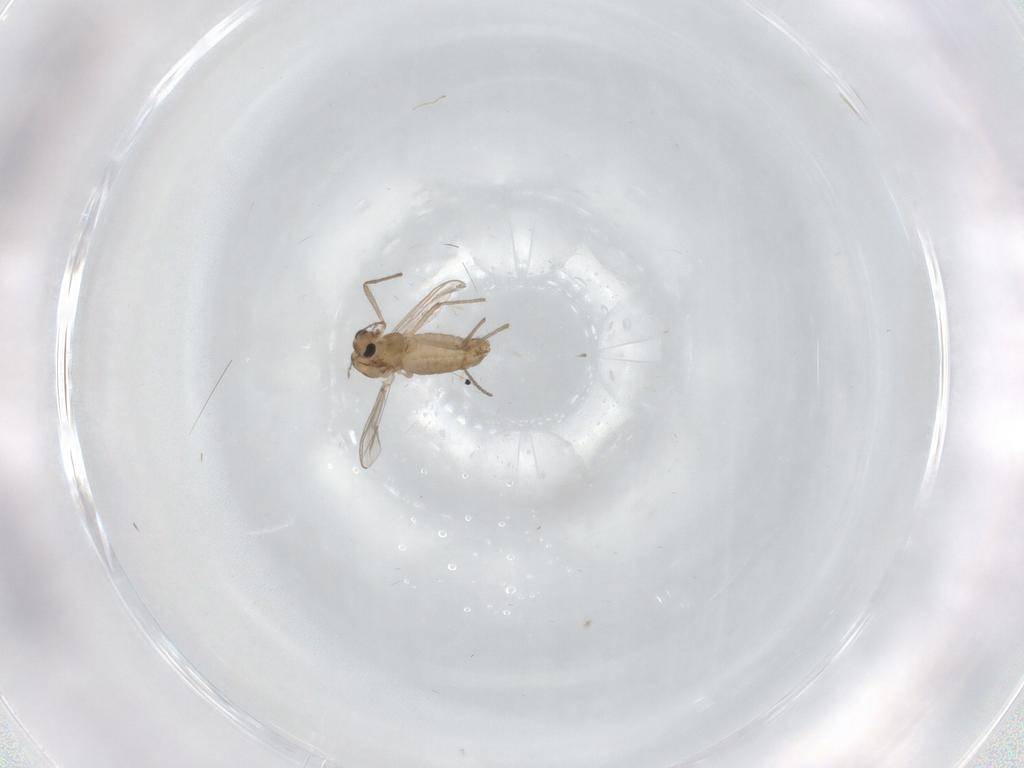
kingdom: Animalia
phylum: Arthropoda
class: Insecta
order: Diptera
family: Chironomidae
